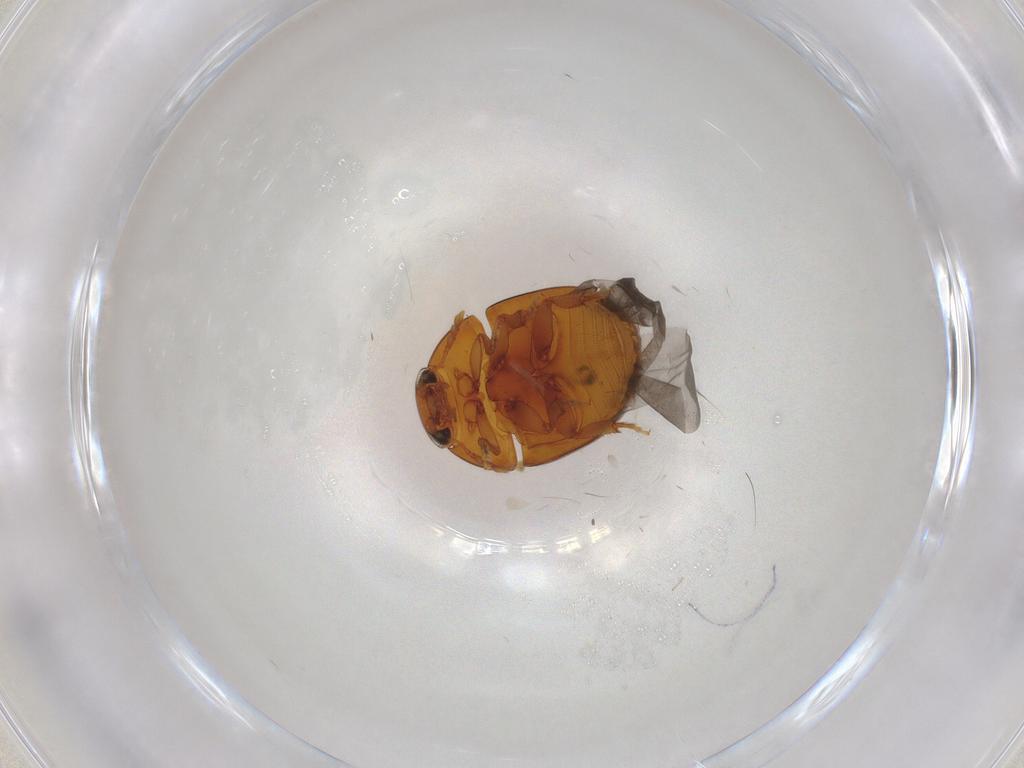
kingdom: Animalia
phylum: Arthropoda
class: Insecta
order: Coleoptera
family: Phalacridae
